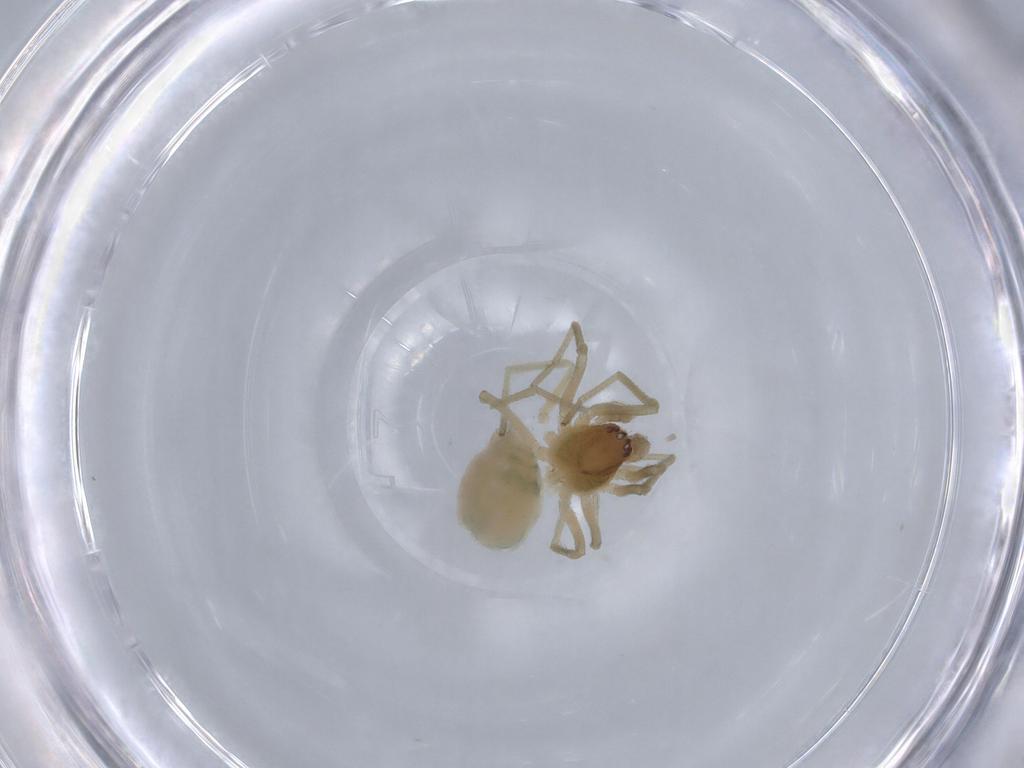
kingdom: Animalia
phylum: Arthropoda
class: Arachnida
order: Araneae
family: Dictynidae
